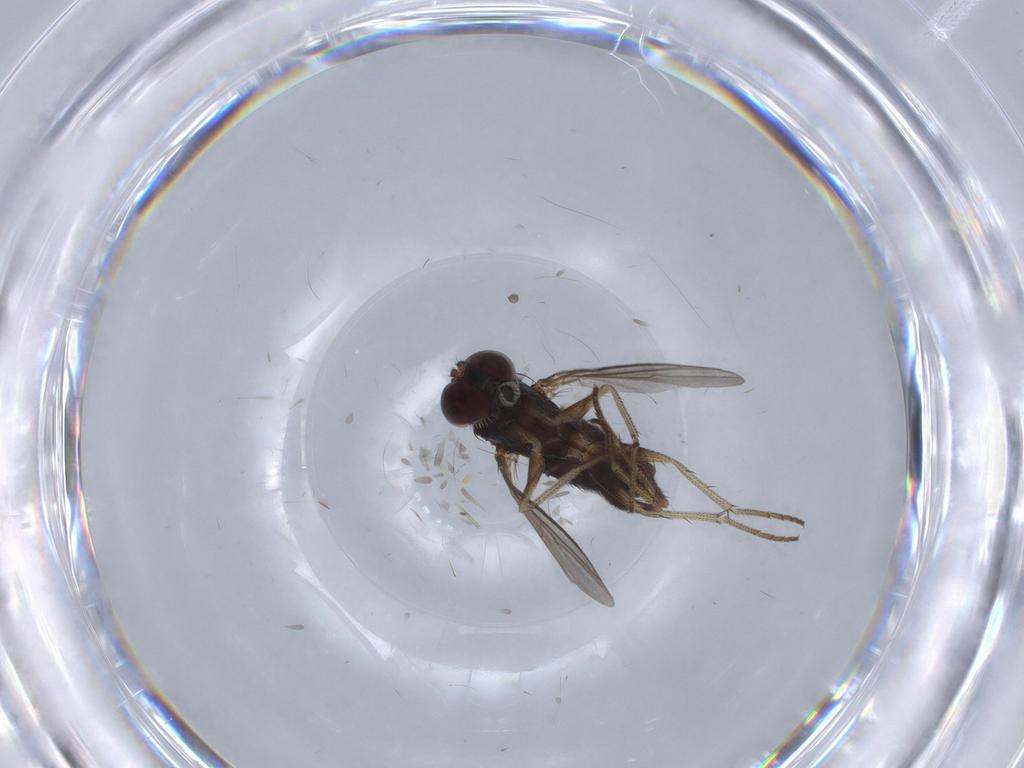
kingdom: Animalia
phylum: Arthropoda
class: Insecta
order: Diptera
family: Dolichopodidae
